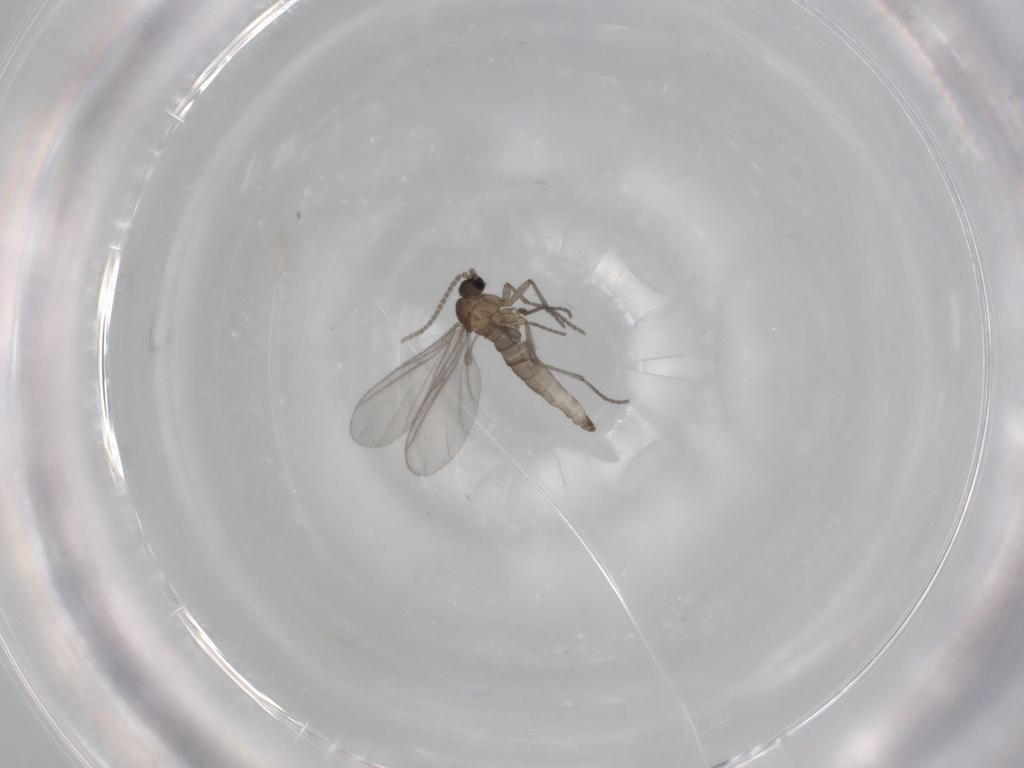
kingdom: Animalia
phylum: Arthropoda
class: Insecta
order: Diptera
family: Sciaridae
